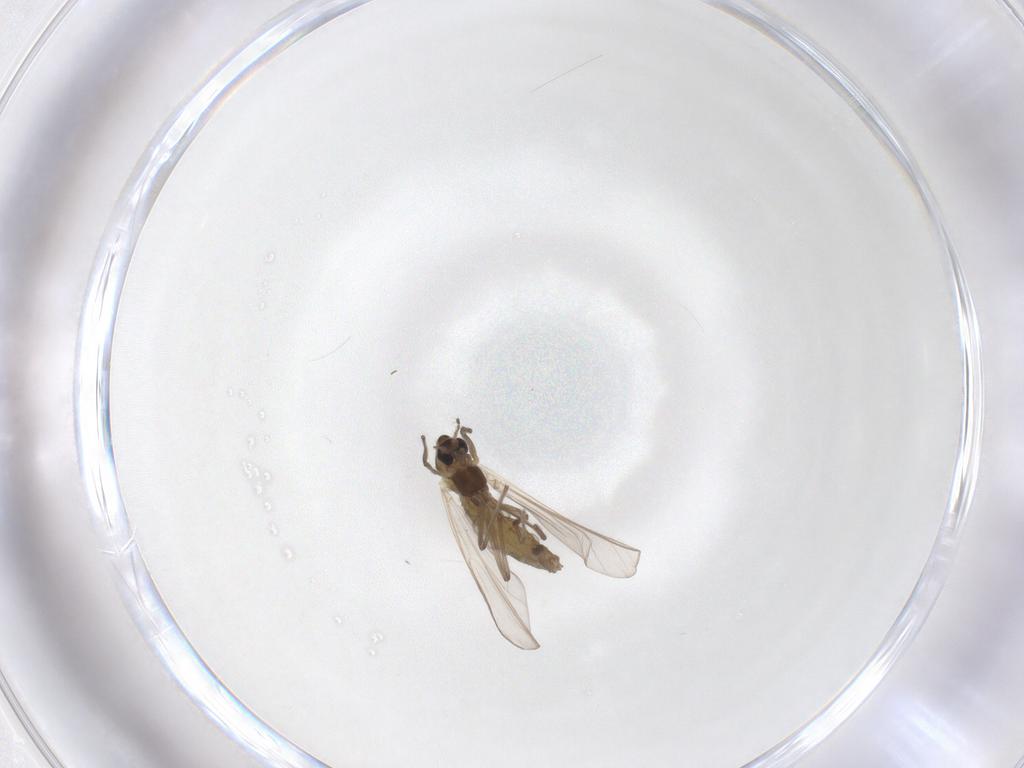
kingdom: Animalia
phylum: Arthropoda
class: Insecta
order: Diptera
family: Chironomidae
